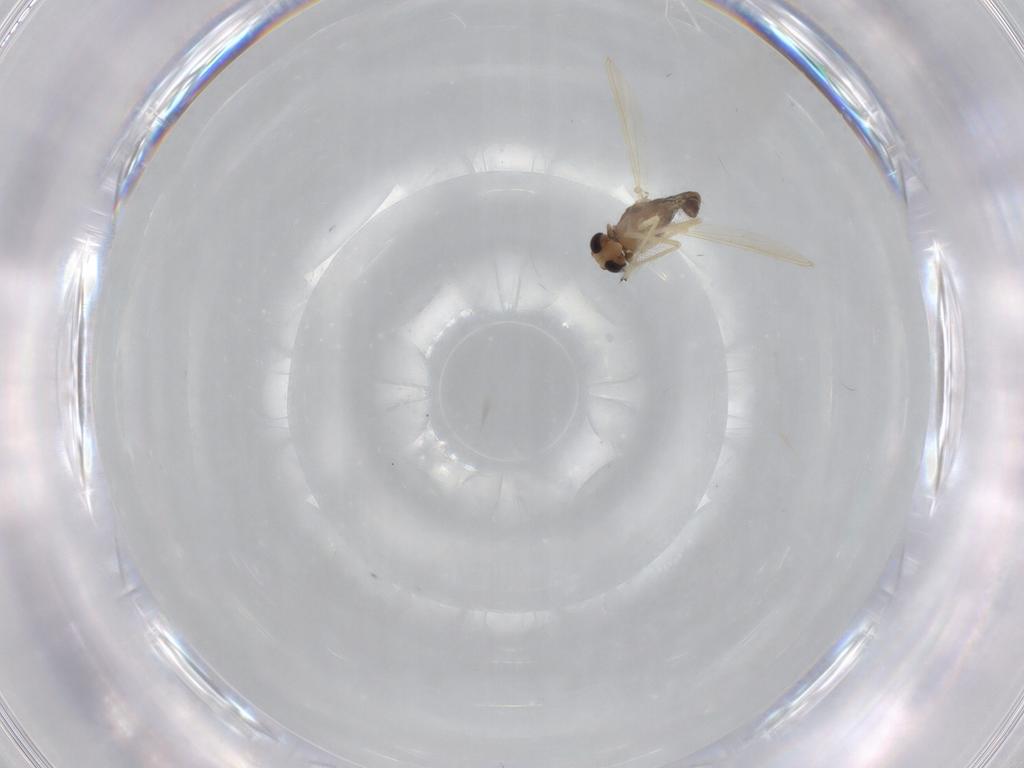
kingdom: Animalia
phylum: Arthropoda
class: Insecta
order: Diptera
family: Chironomidae
